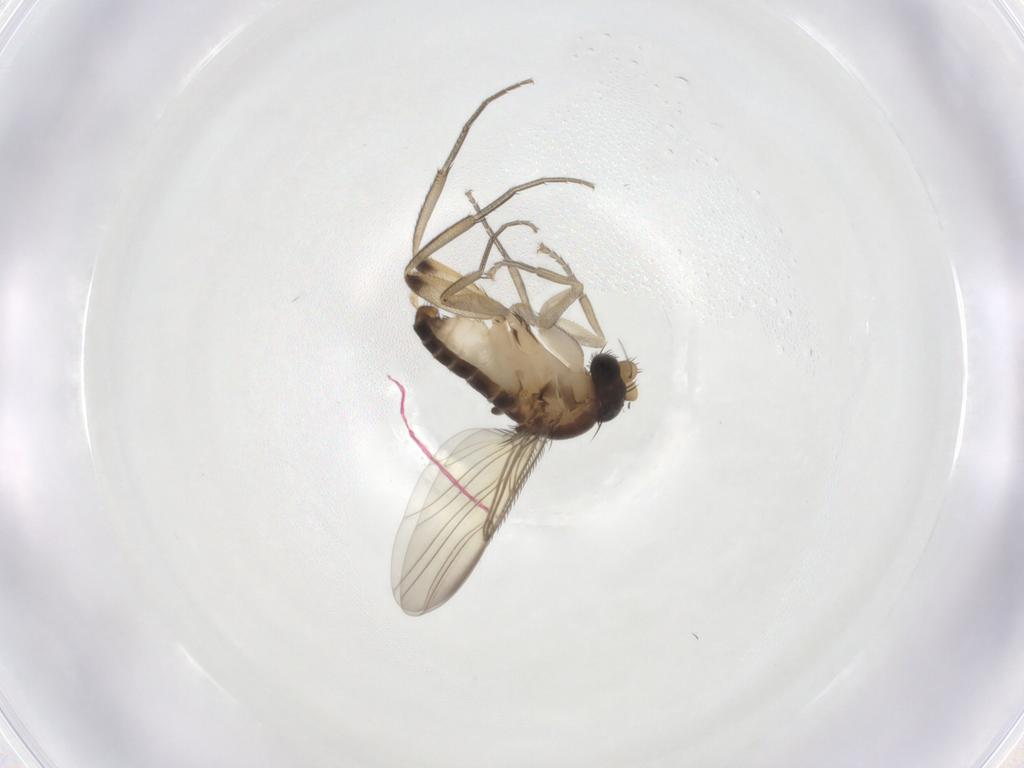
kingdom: Animalia
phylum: Arthropoda
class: Insecta
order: Diptera
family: Phoridae
